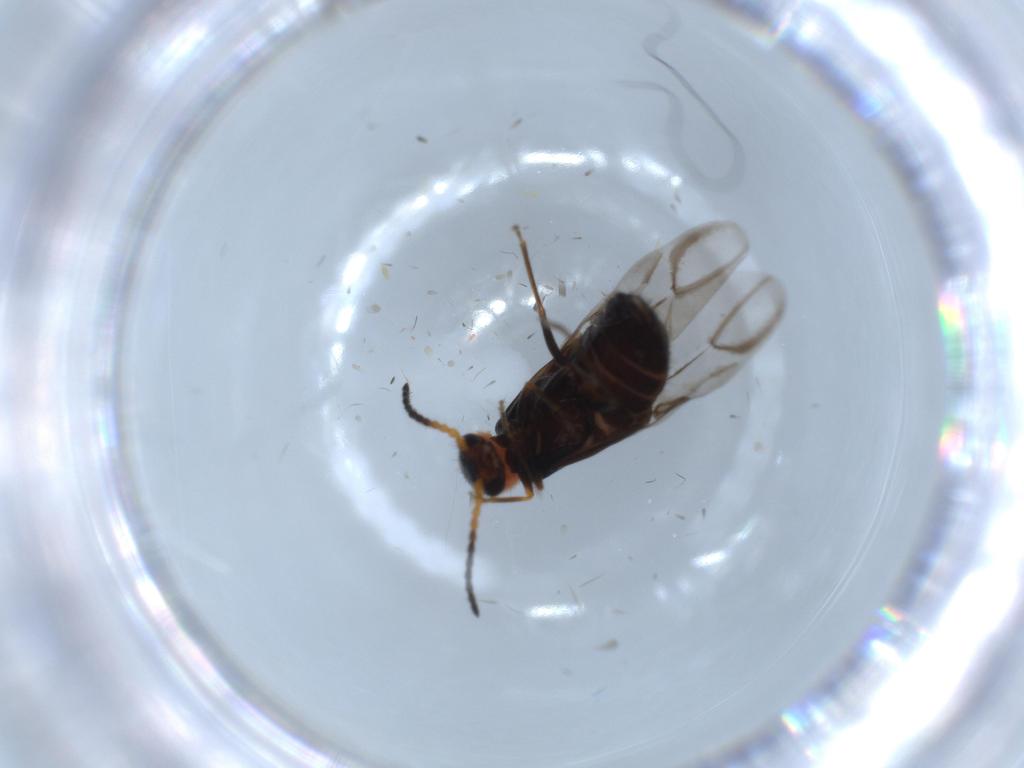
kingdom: Animalia
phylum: Arthropoda
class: Insecta
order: Coleoptera
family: Melyridae
